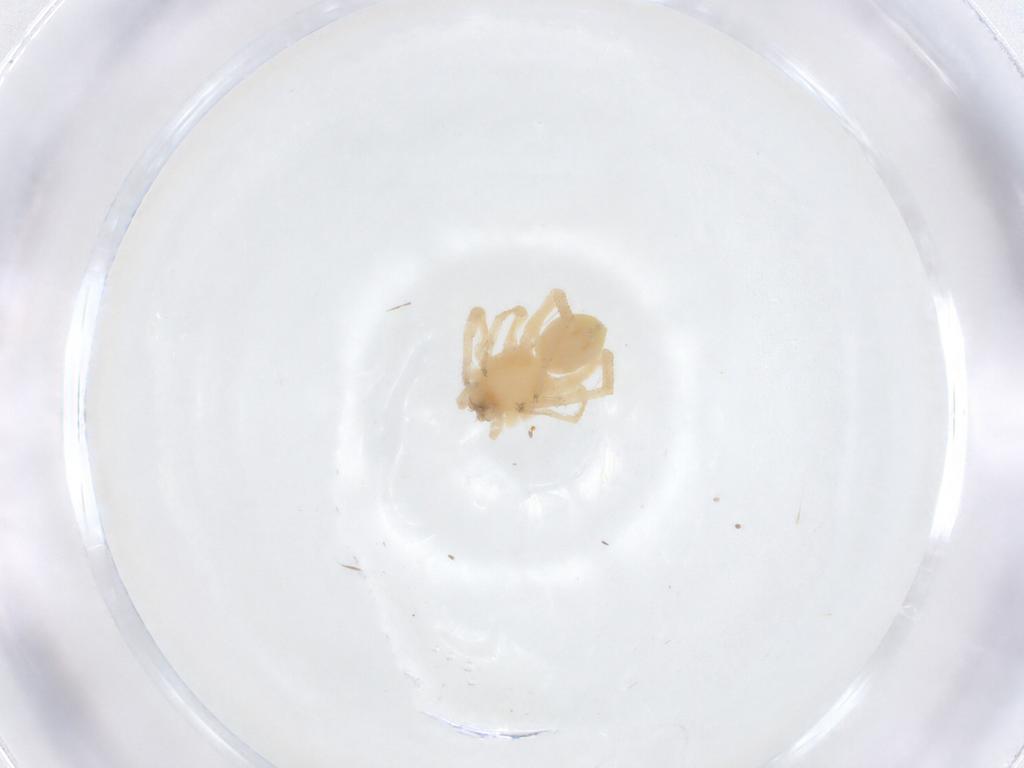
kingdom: Animalia
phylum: Arthropoda
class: Arachnida
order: Araneae
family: Anyphaenidae
